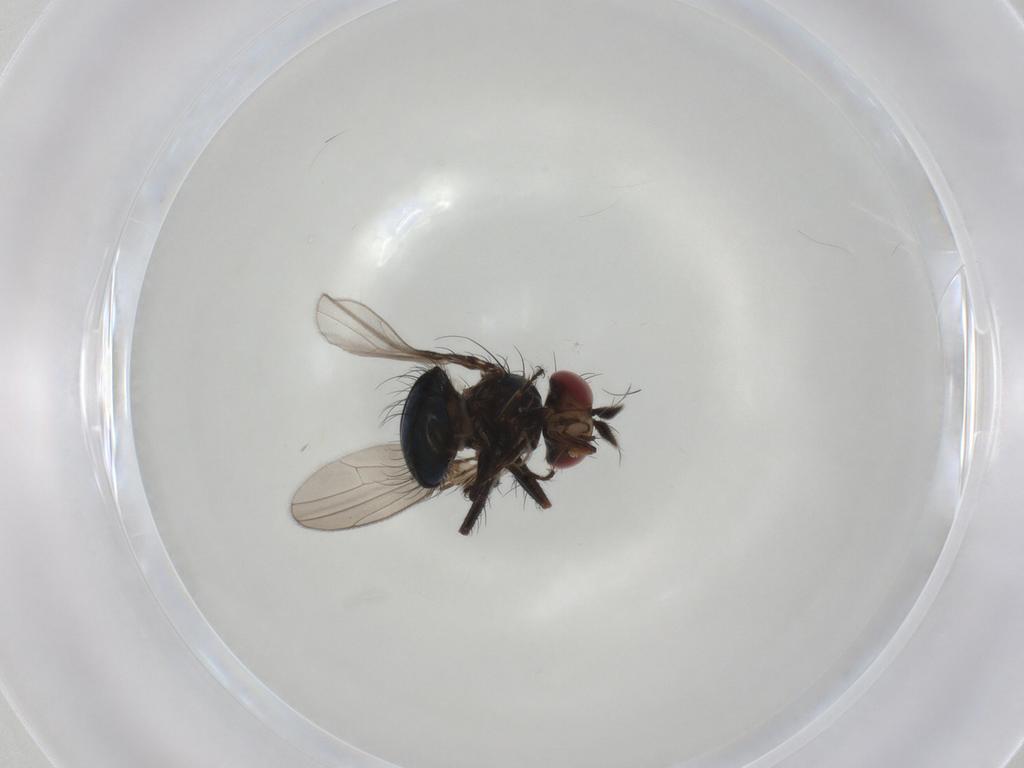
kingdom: Animalia
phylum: Arthropoda
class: Insecta
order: Diptera
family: Ephydridae
